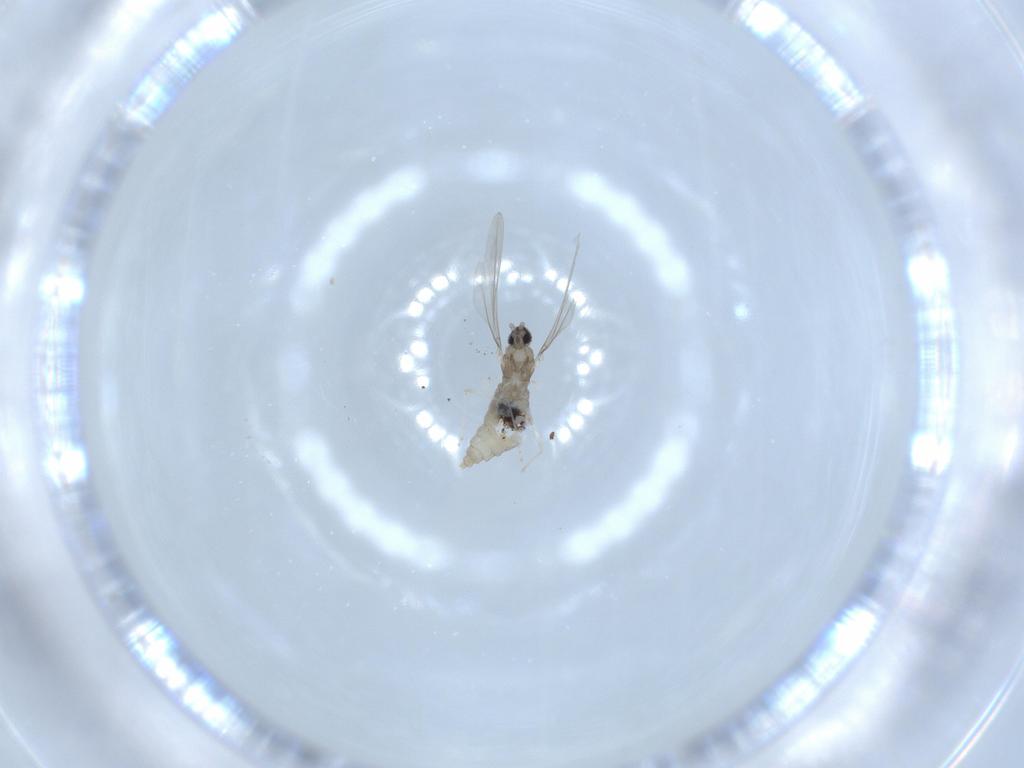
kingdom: Animalia
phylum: Arthropoda
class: Insecta
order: Diptera
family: Cecidomyiidae
